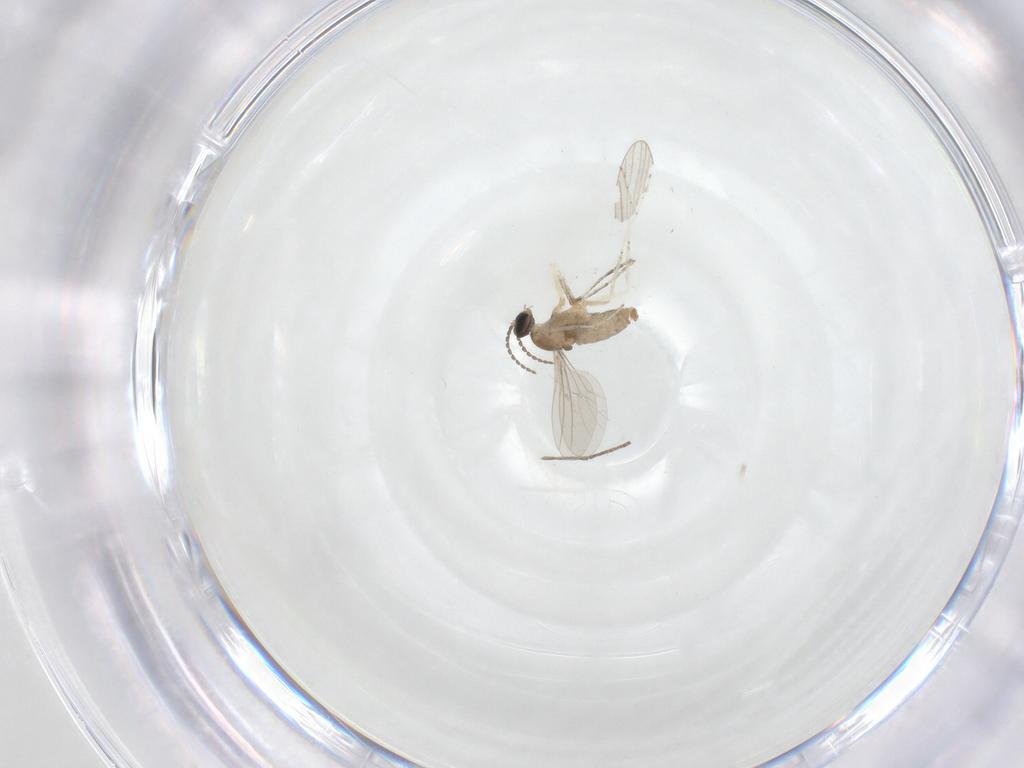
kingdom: Animalia
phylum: Arthropoda
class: Insecta
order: Diptera
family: Cecidomyiidae
